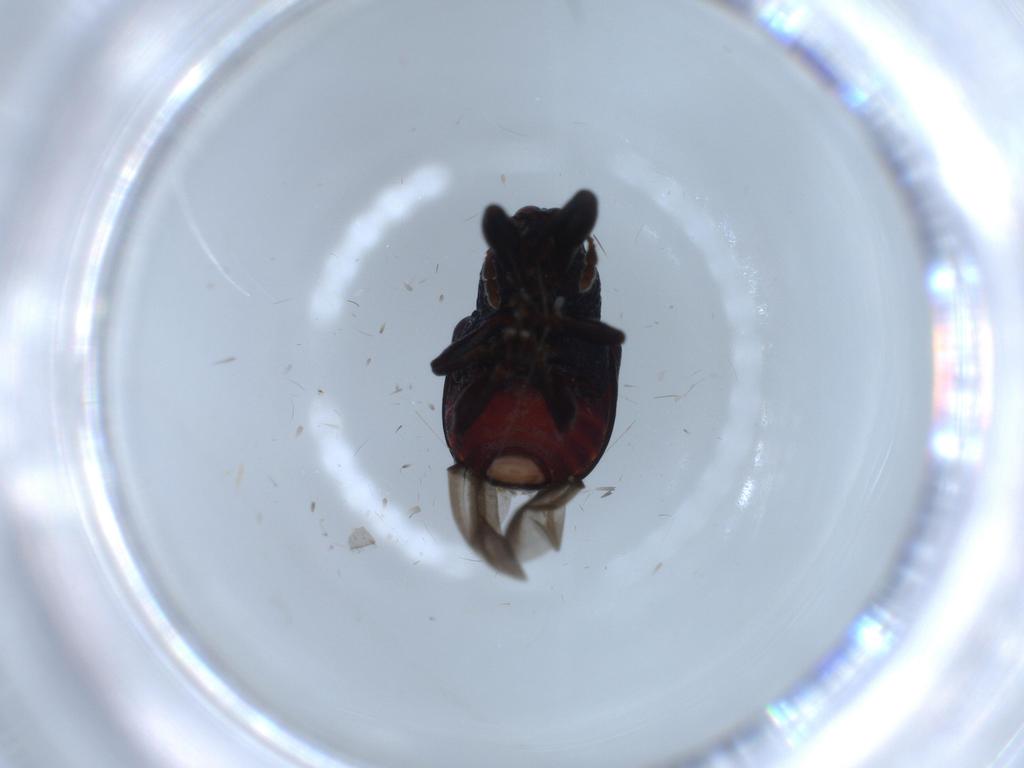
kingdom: Animalia
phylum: Arthropoda
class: Insecta
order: Coleoptera
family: Ptilodactylidae
